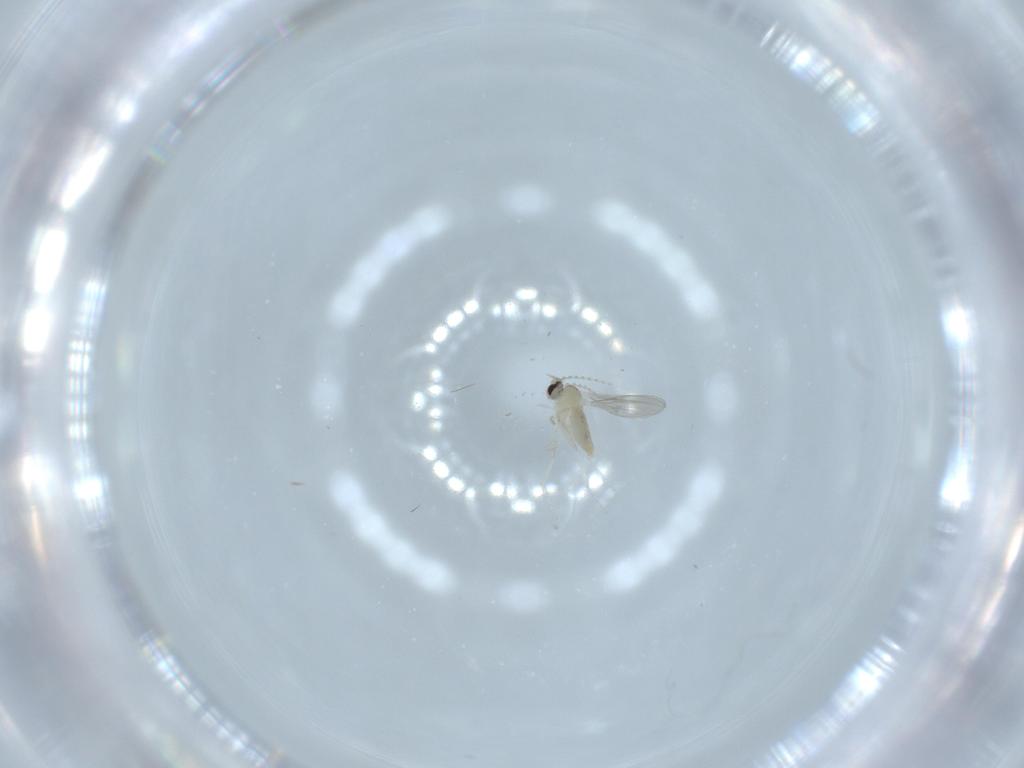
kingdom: Animalia
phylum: Arthropoda
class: Insecta
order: Diptera
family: Cecidomyiidae
